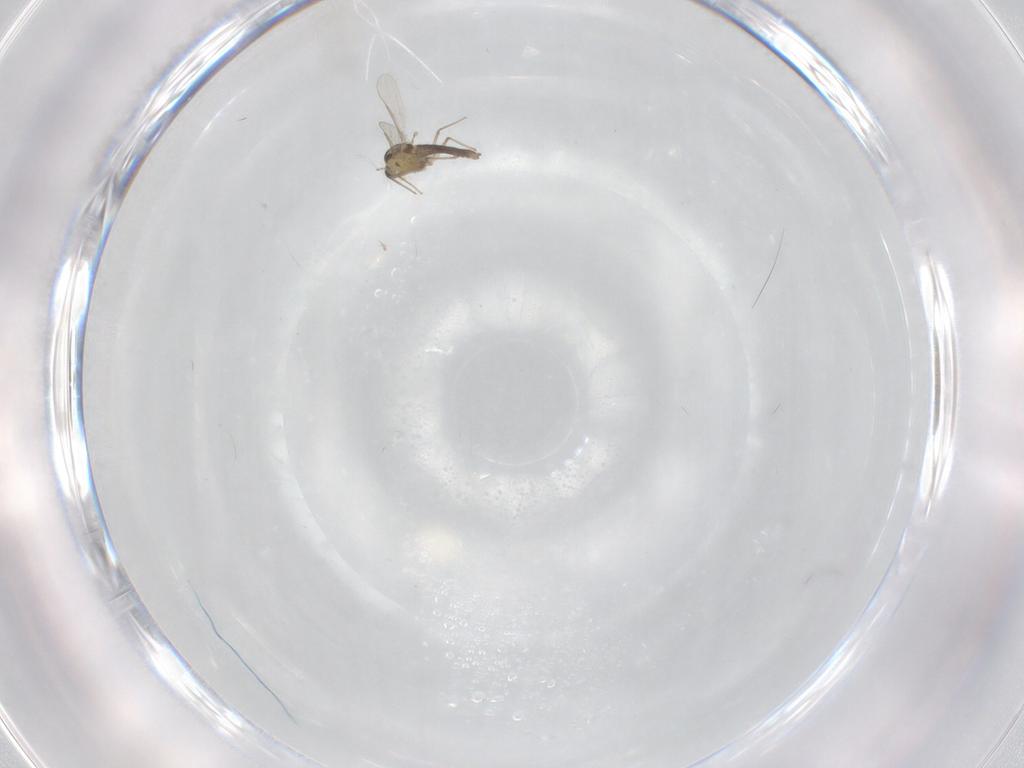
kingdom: Animalia
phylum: Arthropoda
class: Insecta
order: Diptera
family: Chironomidae
